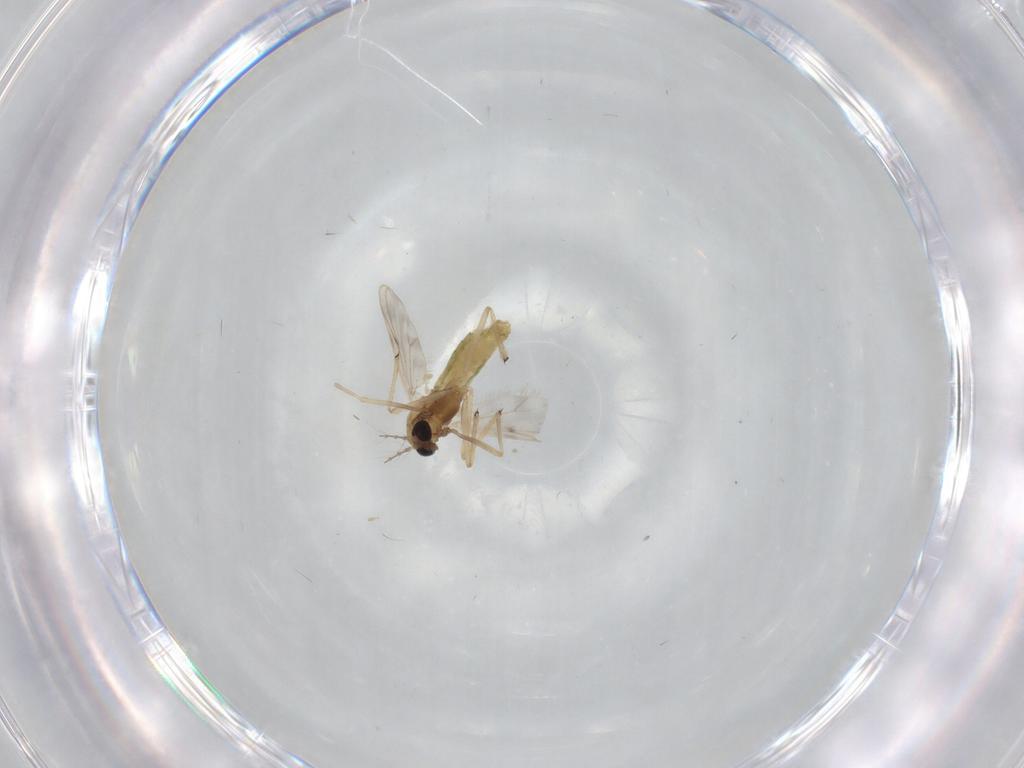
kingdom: Animalia
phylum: Arthropoda
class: Insecta
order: Diptera
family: Chironomidae
